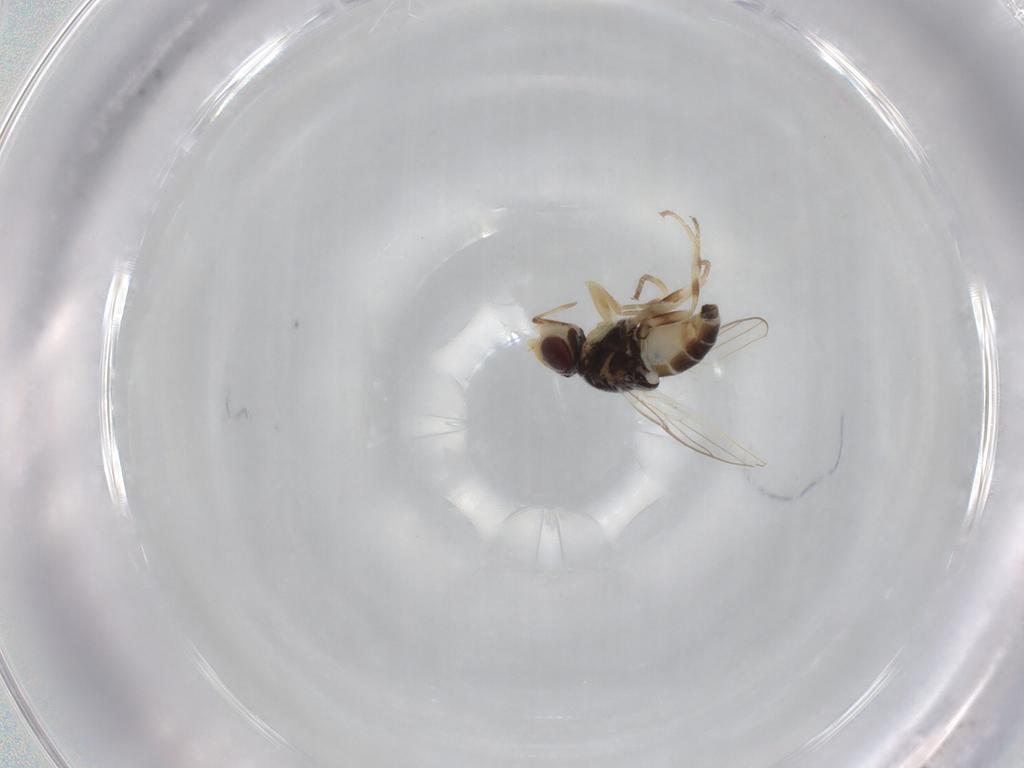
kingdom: Animalia
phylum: Arthropoda
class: Insecta
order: Diptera
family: Chloropidae
